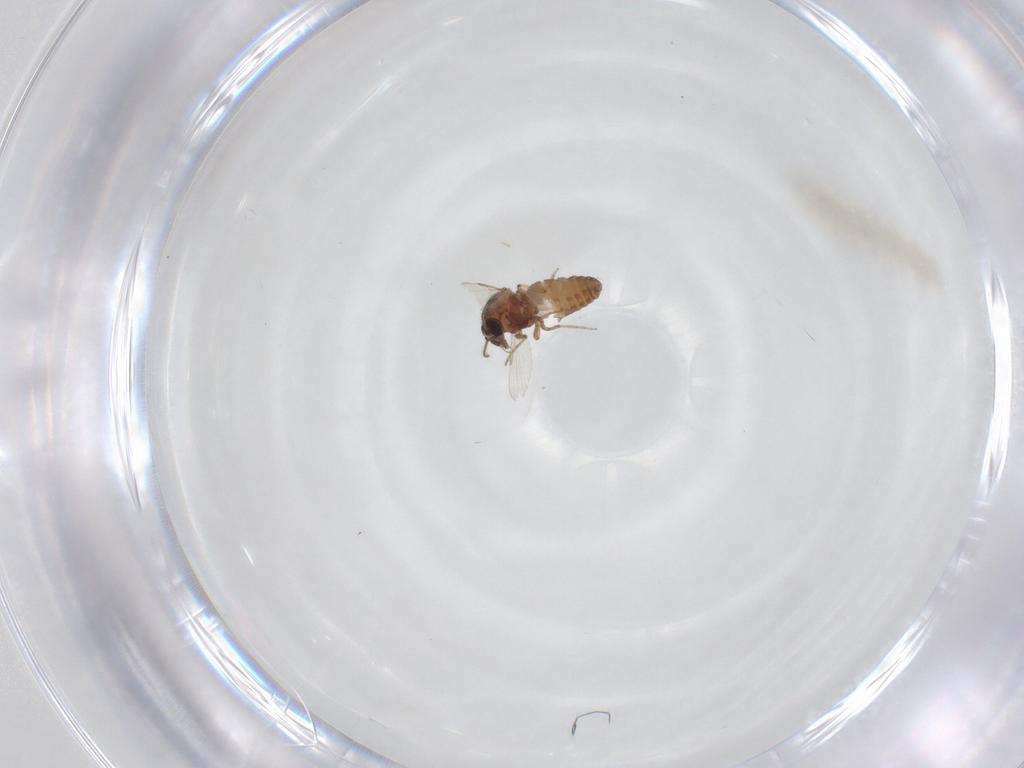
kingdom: Animalia
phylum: Arthropoda
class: Insecta
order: Diptera
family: Ceratopogonidae
